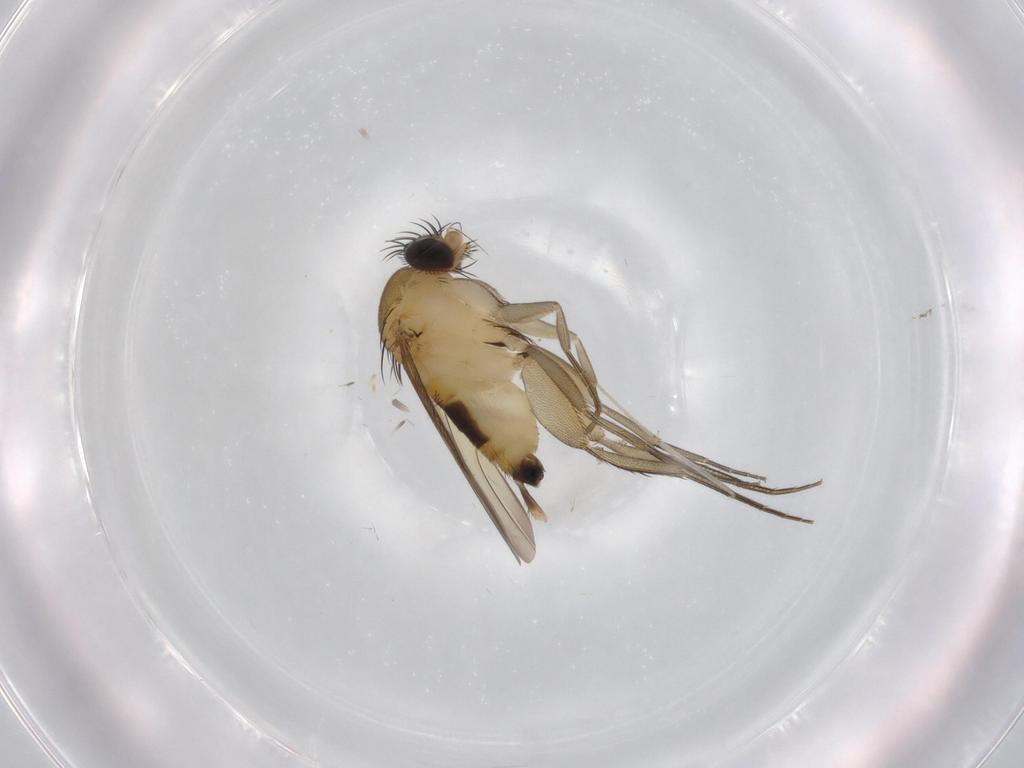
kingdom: Animalia
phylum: Arthropoda
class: Insecta
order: Diptera
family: Phoridae
